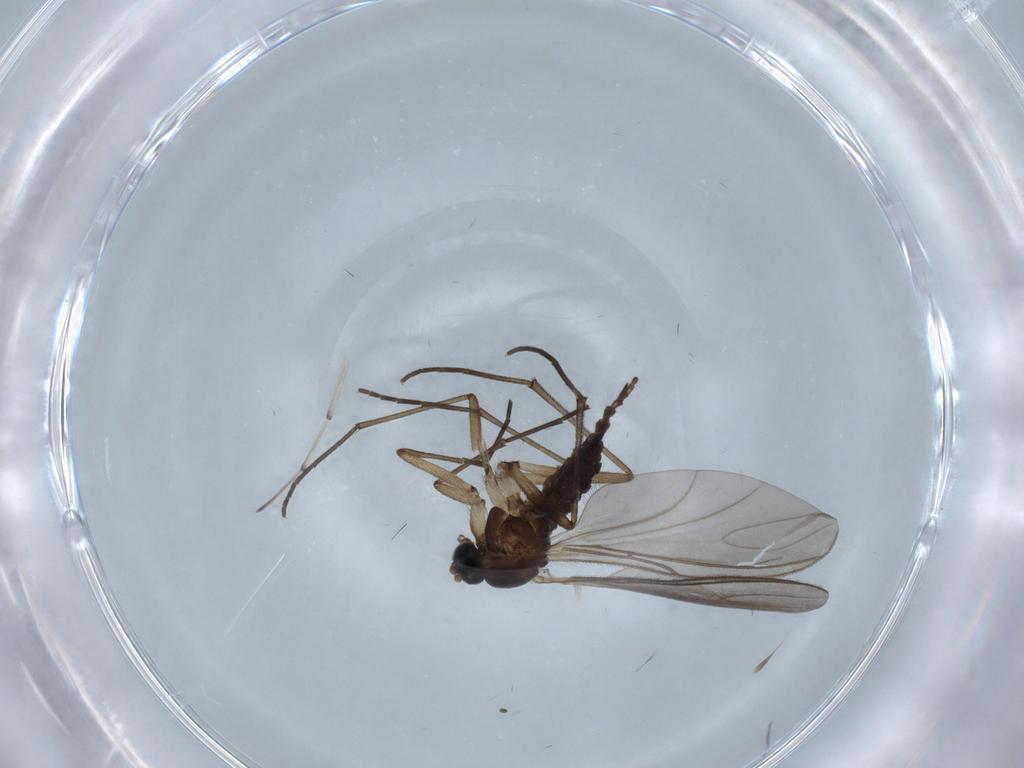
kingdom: Animalia
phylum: Arthropoda
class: Insecta
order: Diptera
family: Sciaridae
